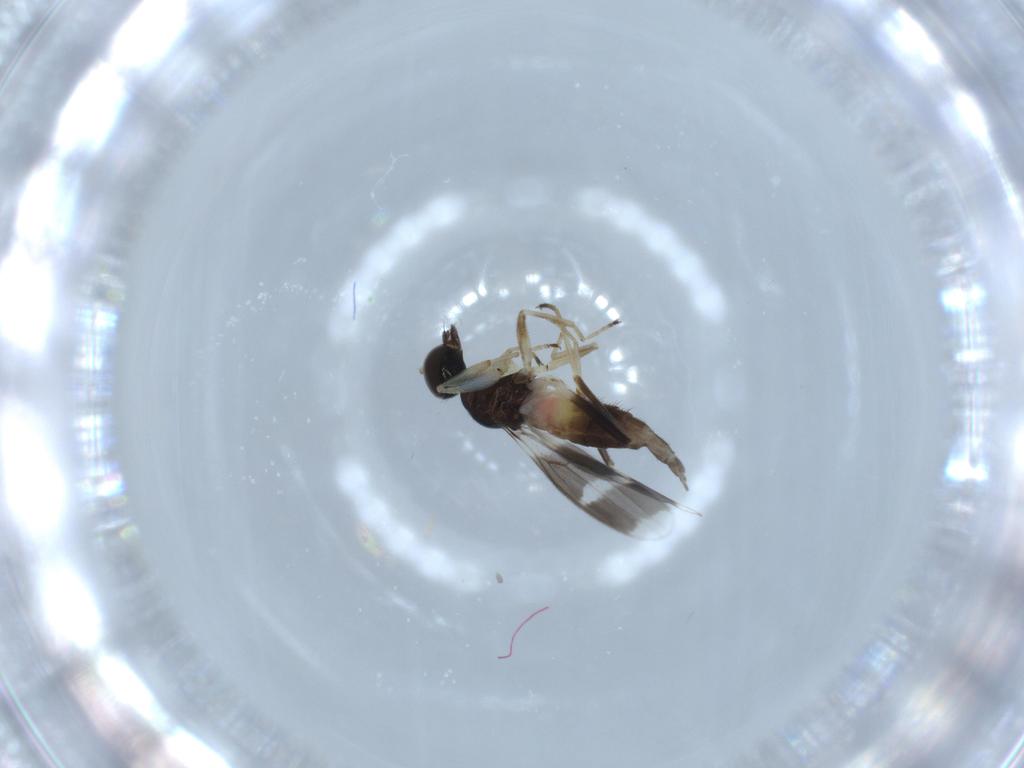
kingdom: Animalia
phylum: Arthropoda
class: Insecta
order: Diptera
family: Hybotidae
